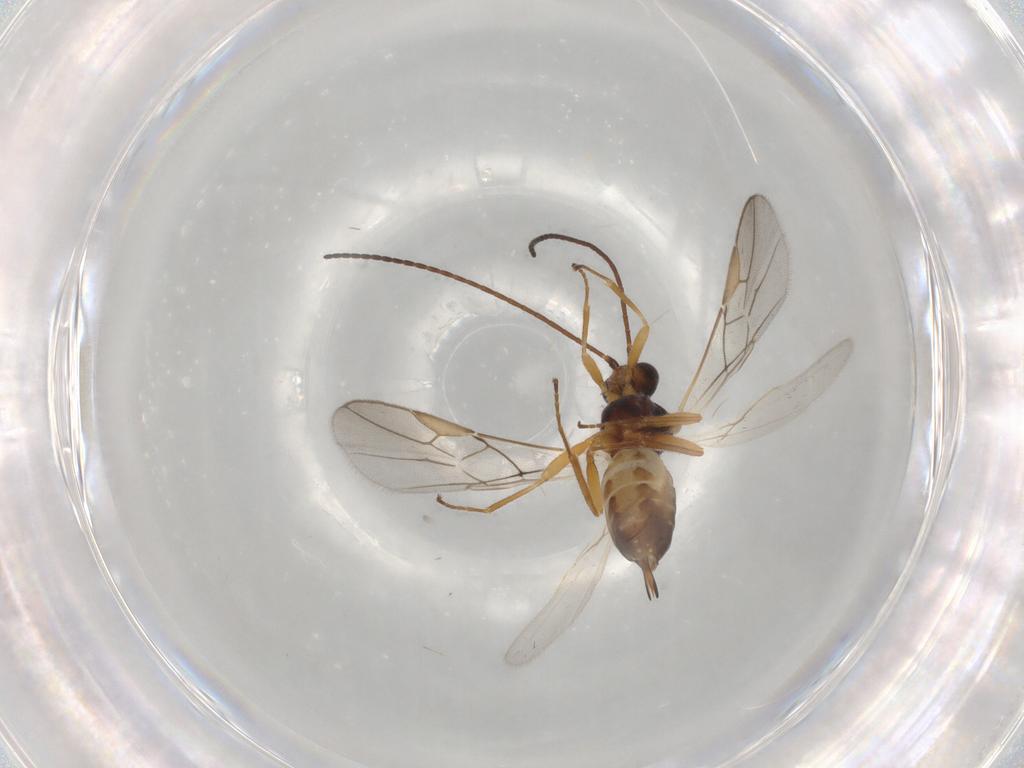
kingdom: Animalia
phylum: Arthropoda
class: Insecta
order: Hymenoptera
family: Braconidae
